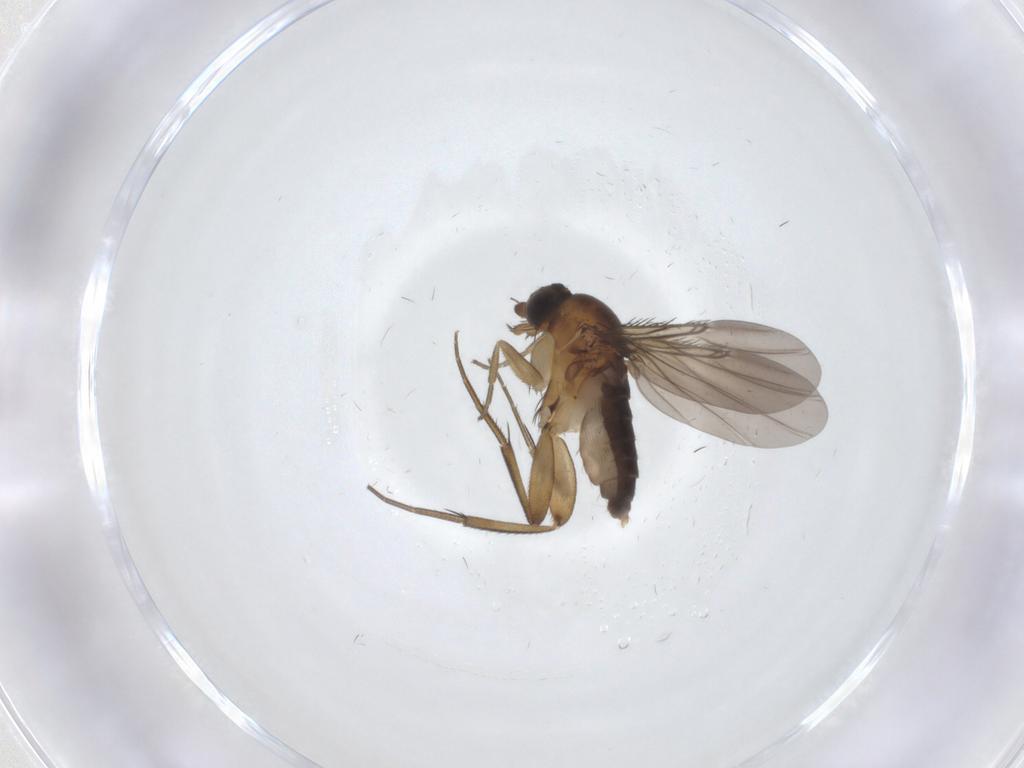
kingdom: Animalia
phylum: Arthropoda
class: Insecta
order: Diptera
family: Phoridae
